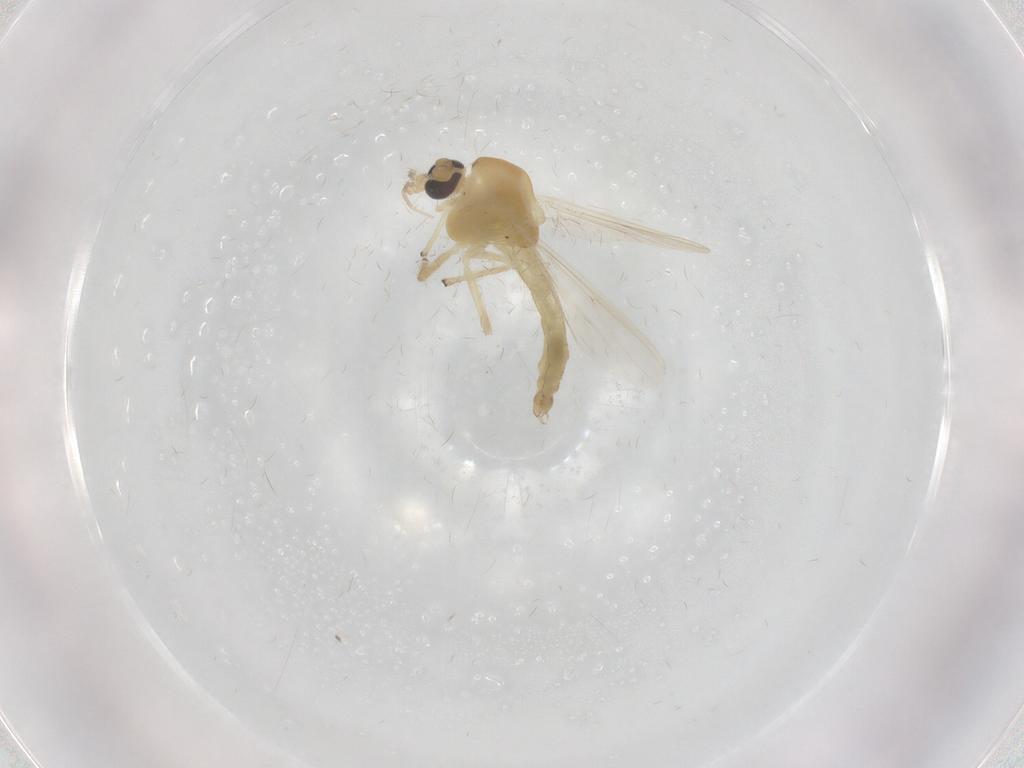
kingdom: Animalia
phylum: Arthropoda
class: Insecta
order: Diptera
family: Chironomidae
